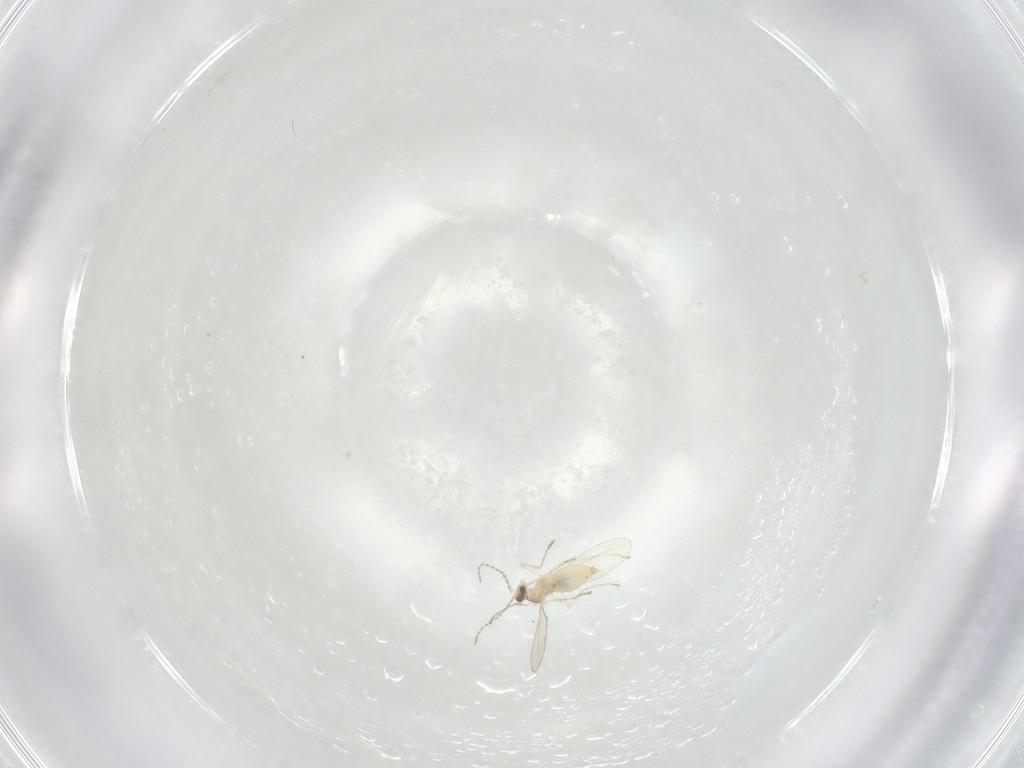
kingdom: Animalia
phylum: Arthropoda
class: Insecta
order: Diptera
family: Cecidomyiidae
